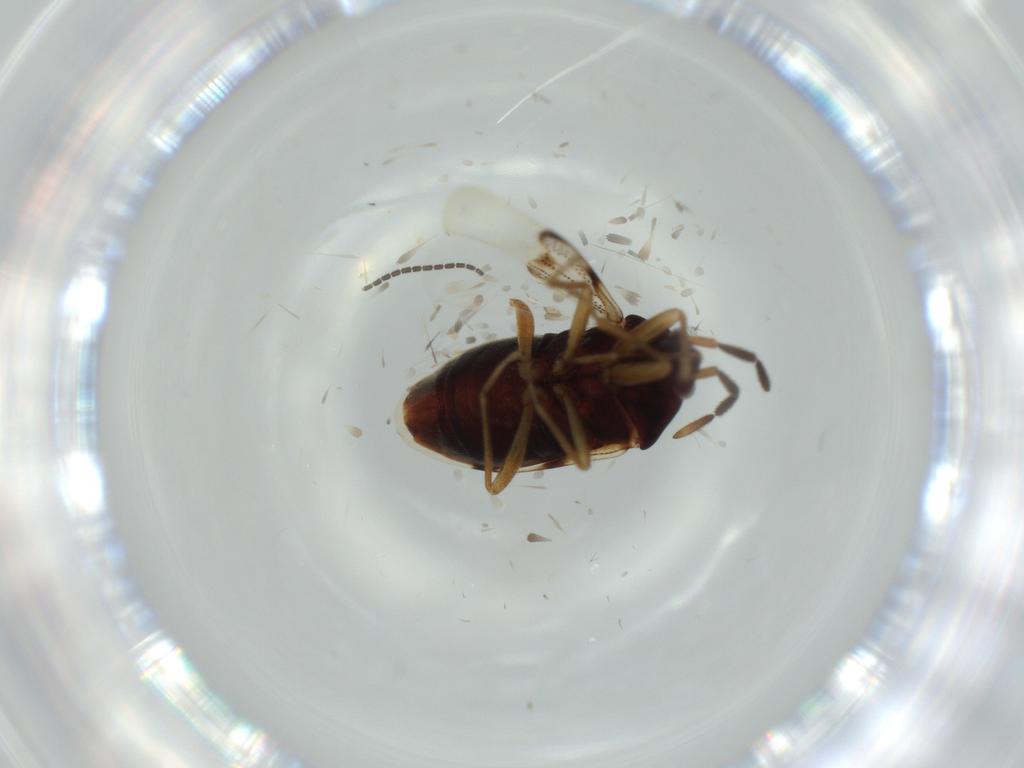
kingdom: Animalia
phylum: Arthropoda
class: Insecta
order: Hemiptera
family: Rhyparochromidae
